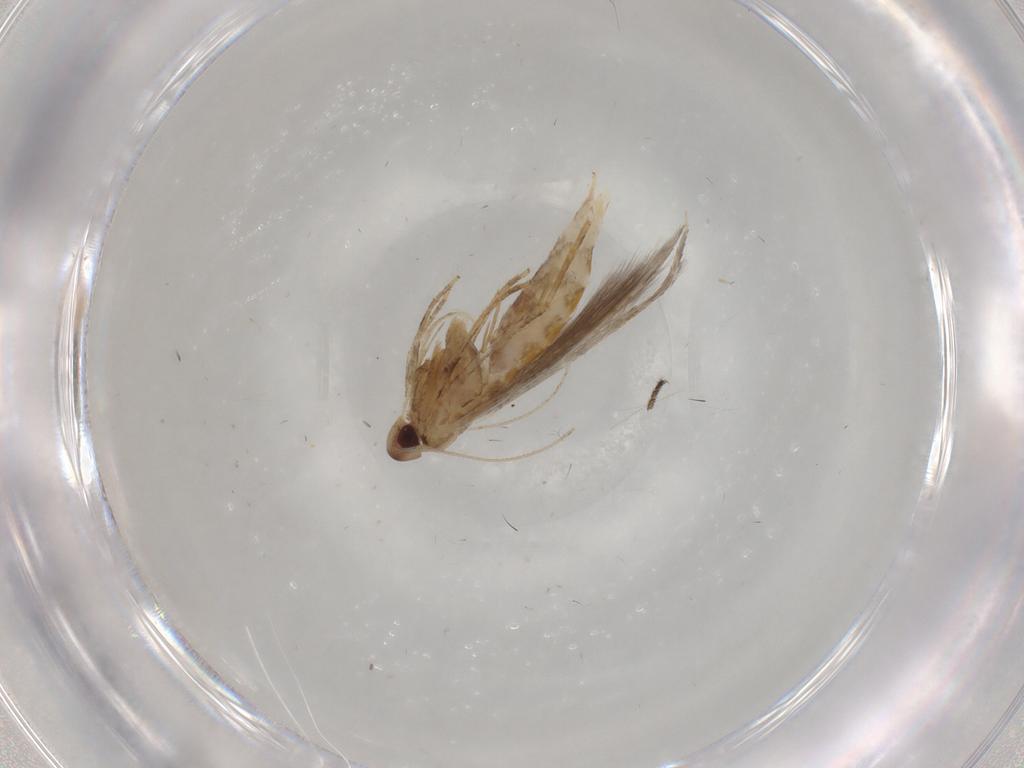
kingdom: Animalia
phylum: Arthropoda
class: Insecta
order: Lepidoptera
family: Cosmopterigidae
